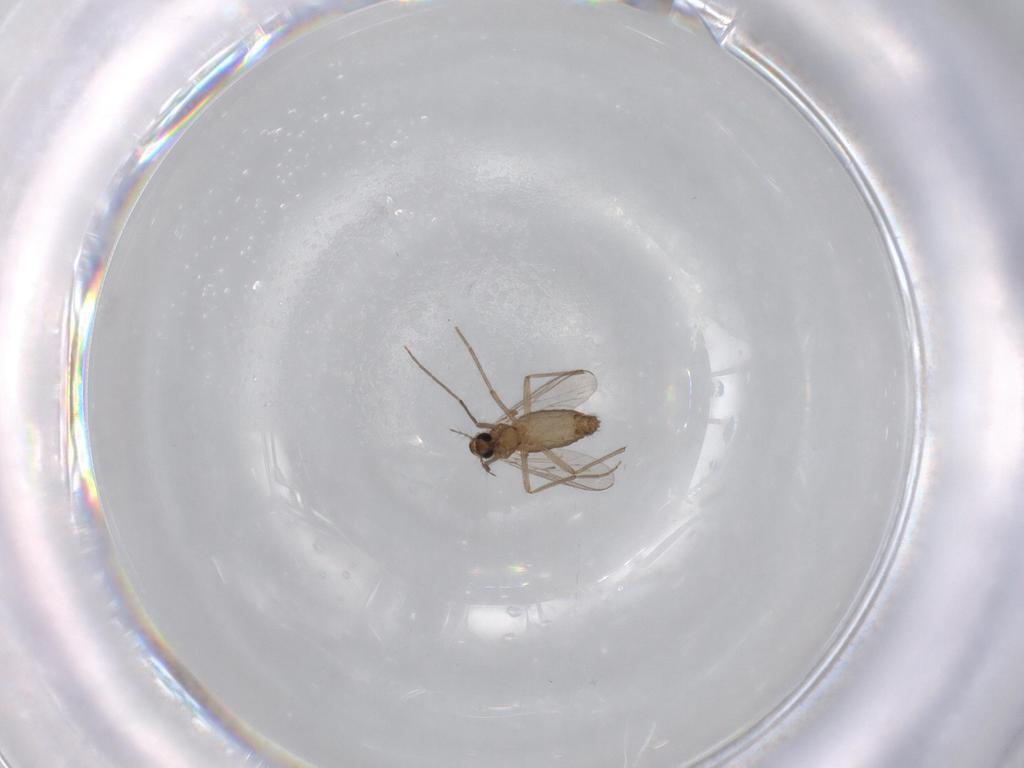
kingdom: Animalia
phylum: Arthropoda
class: Insecta
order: Diptera
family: Chironomidae
